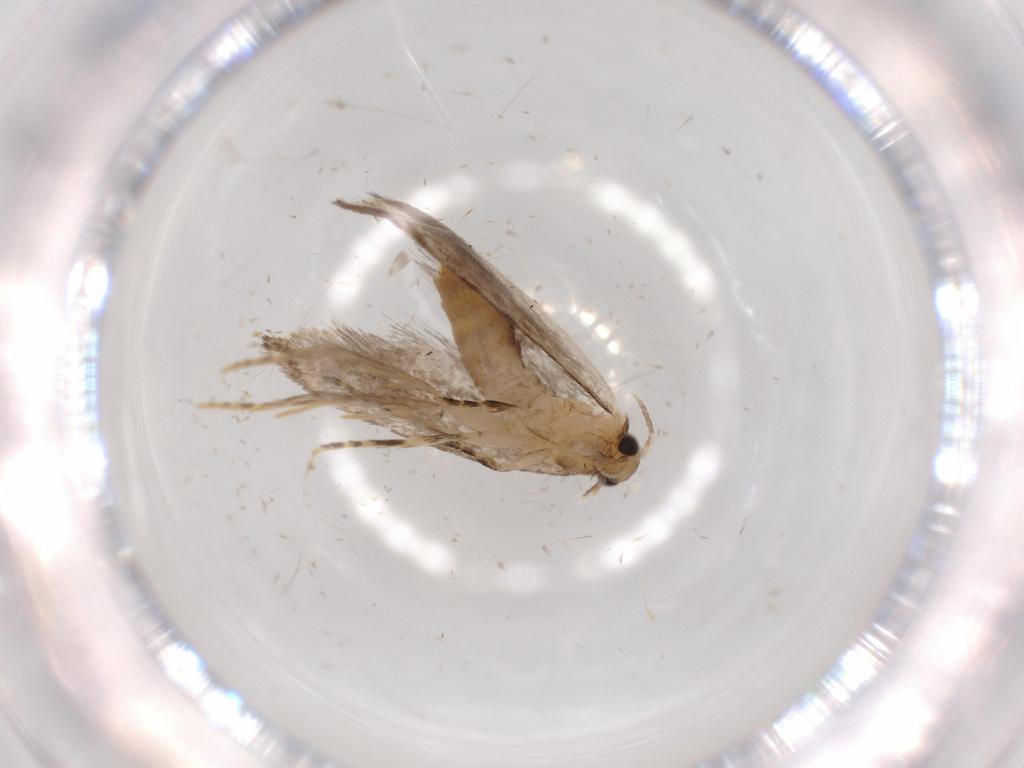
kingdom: Animalia
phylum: Arthropoda
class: Insecta
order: Lepidoptera
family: Tineidae
